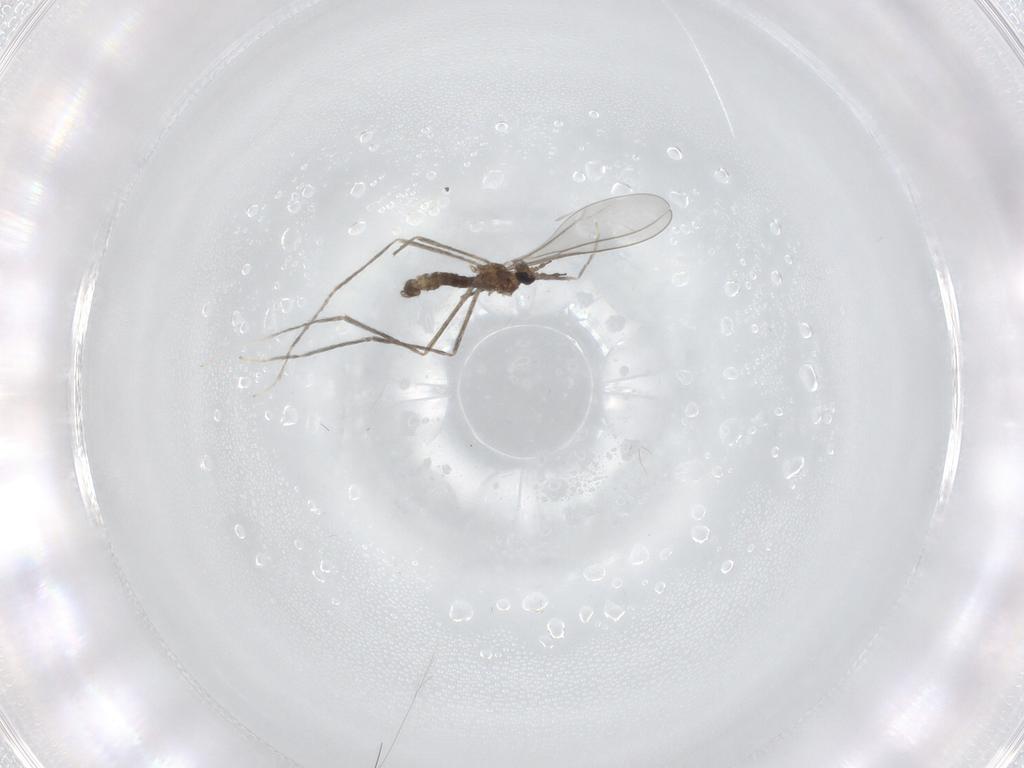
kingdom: Animalia
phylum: Arthropoda
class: Insecta
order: Diptera
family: Cecidomyiidae
